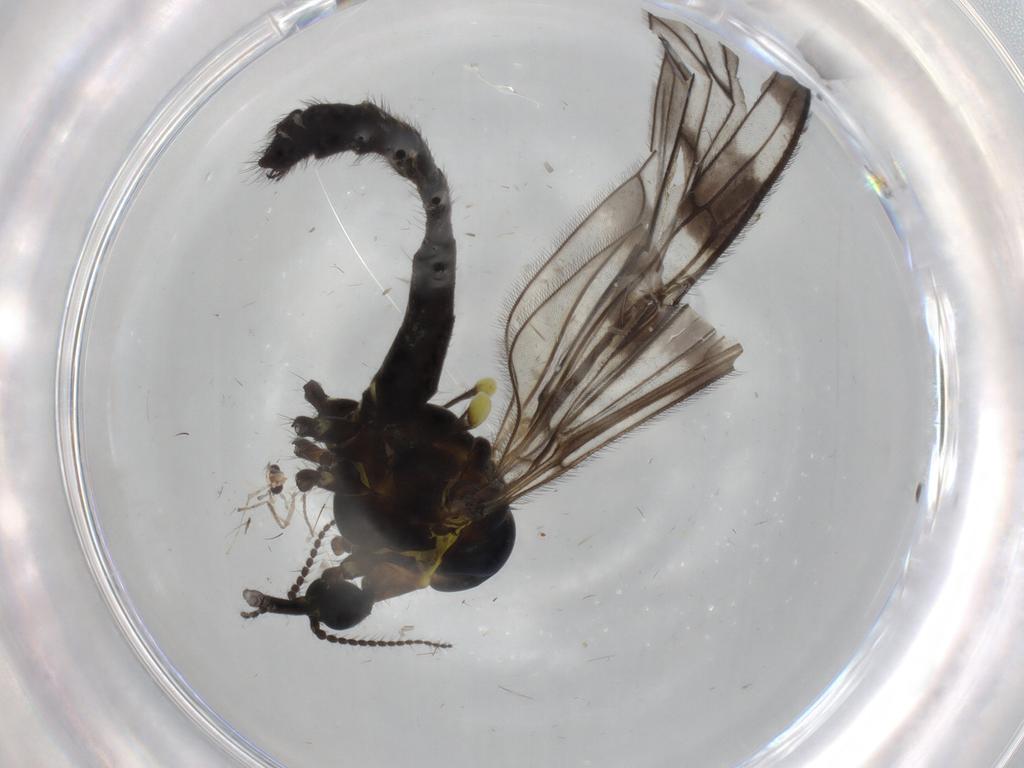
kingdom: Animalia
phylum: Arthropoda
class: Insecta
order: Diptera
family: Limoniidae
